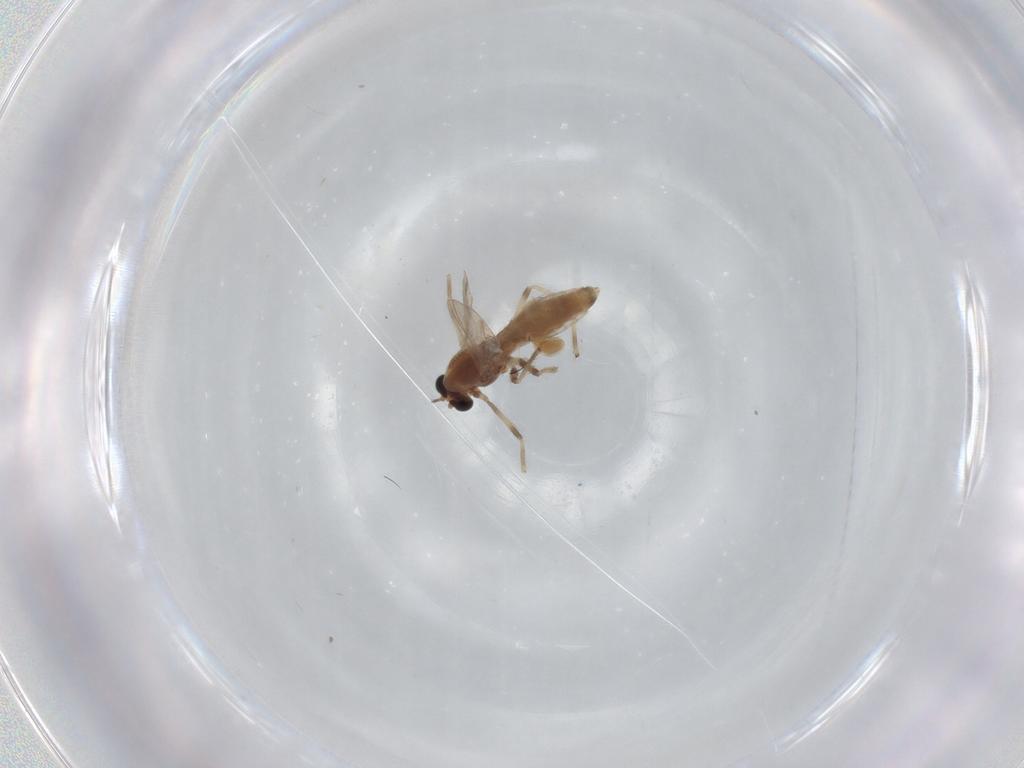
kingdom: Animalia
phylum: Arthropoda
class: Insecta
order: Diptera
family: Chironomidae
